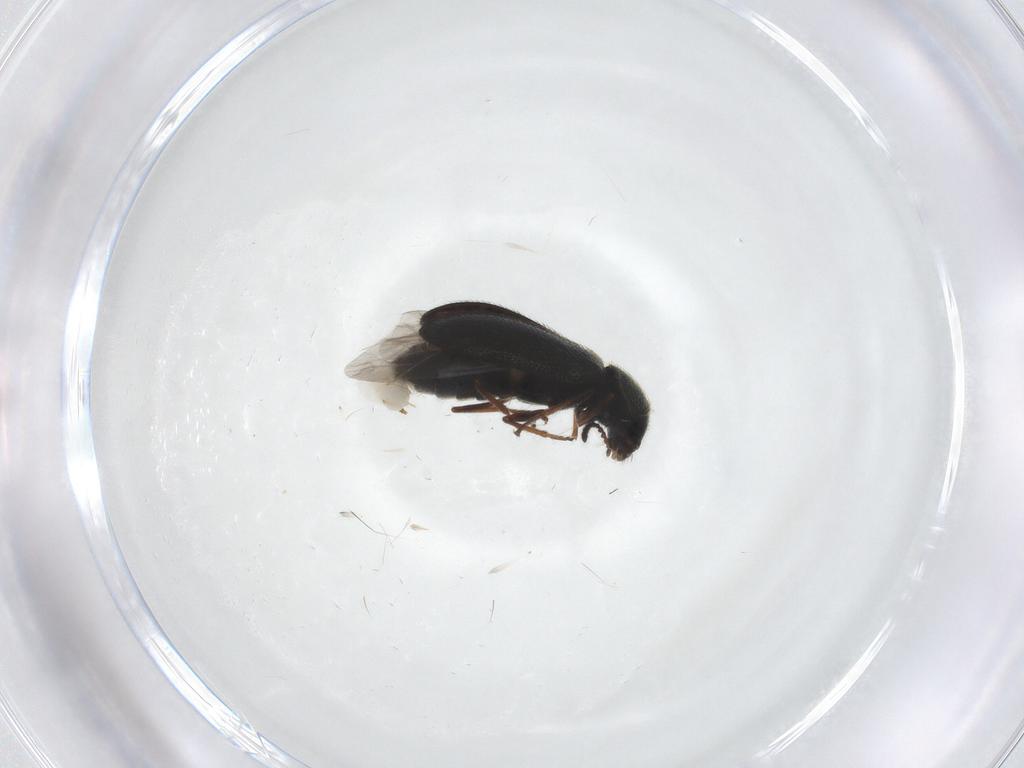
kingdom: Animalia
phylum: Arthropoda
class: Insecta
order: Coleoptera
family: Melyridae
